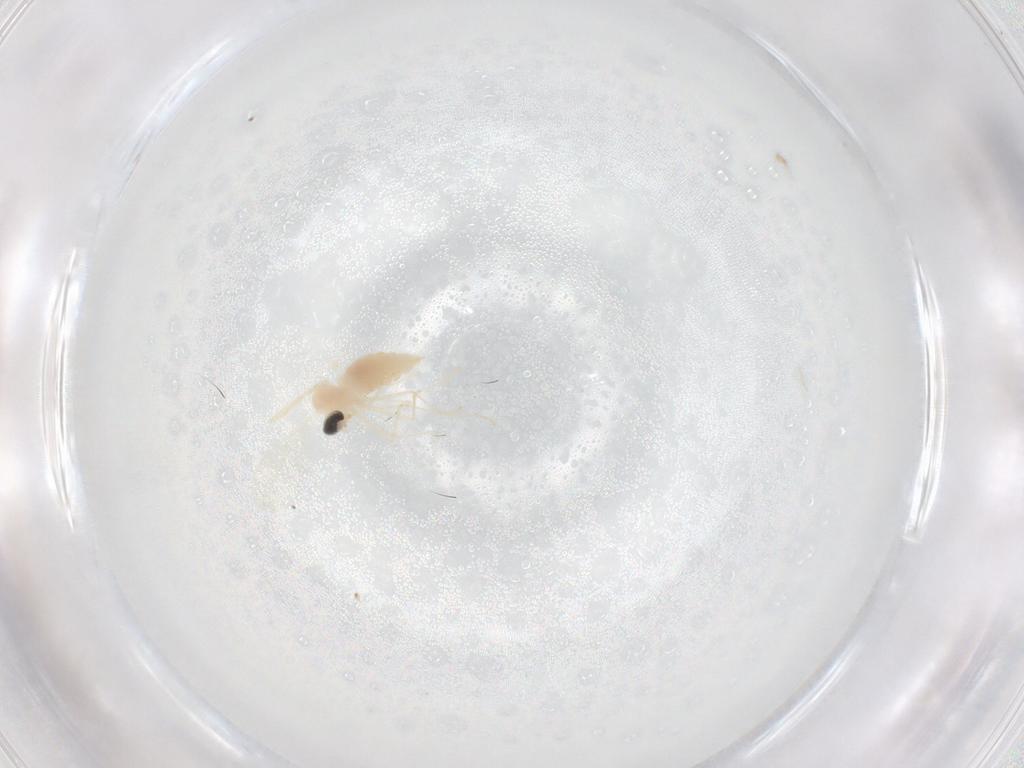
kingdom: Animalia
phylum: Arthropoda
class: Insecta
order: Diptera
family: Cecidomyiidae
